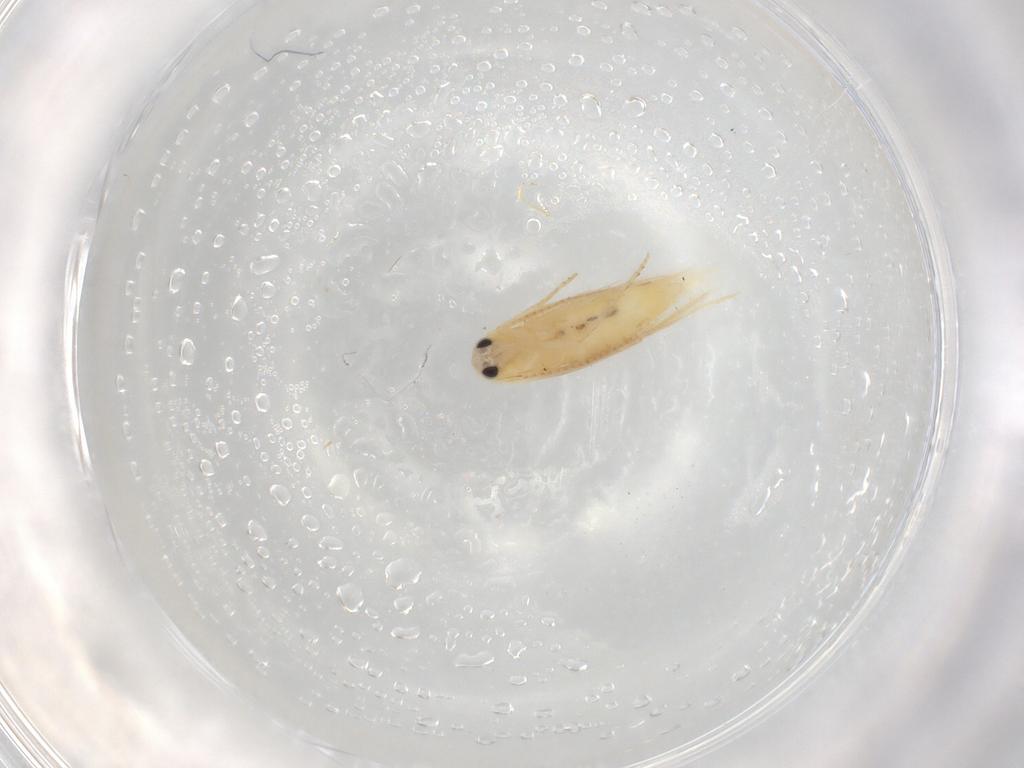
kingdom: Animalia
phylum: Arthropoda
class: Insecta
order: Lepidoptera
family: Depressariidae
